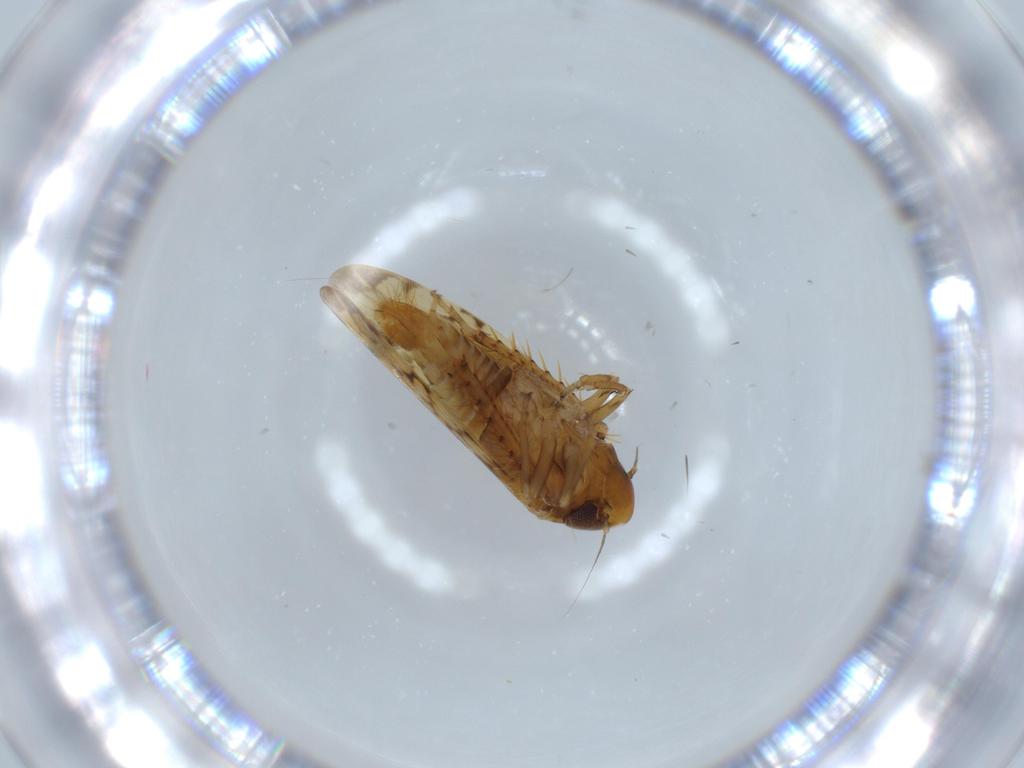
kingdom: Animalia
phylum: Arthropoda
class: Insecta
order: Hemiptera
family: Cicadellidae
